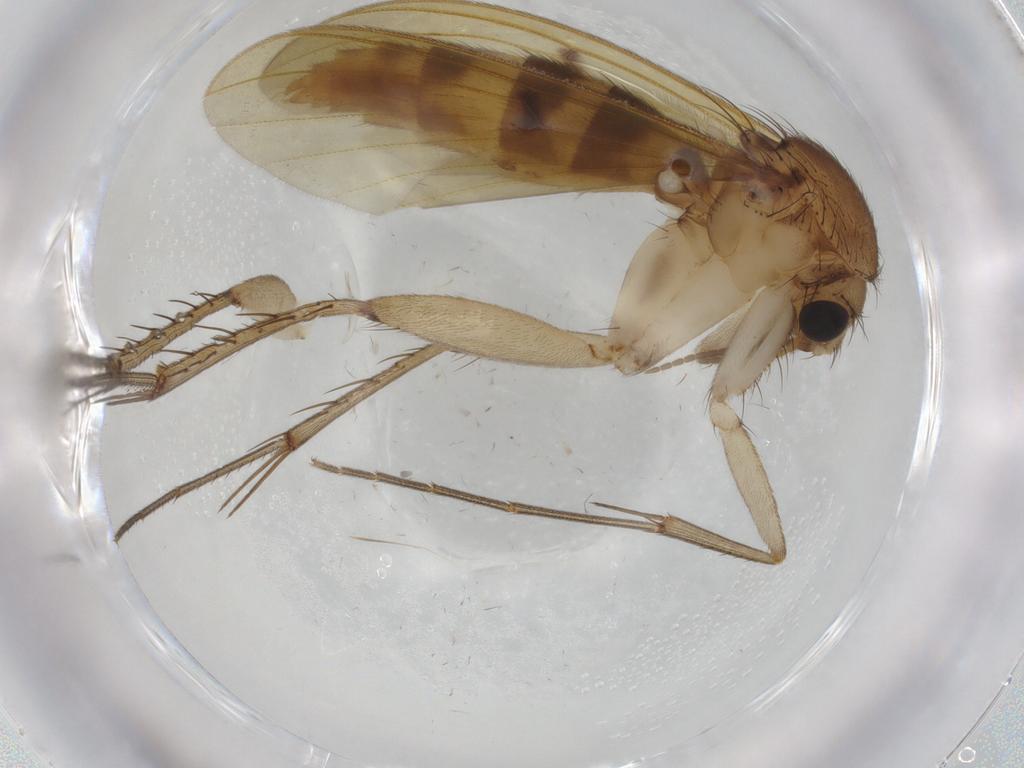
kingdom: Animalia
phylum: Arthropoda
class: Insecta
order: Diptera
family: Mycetophilidae
